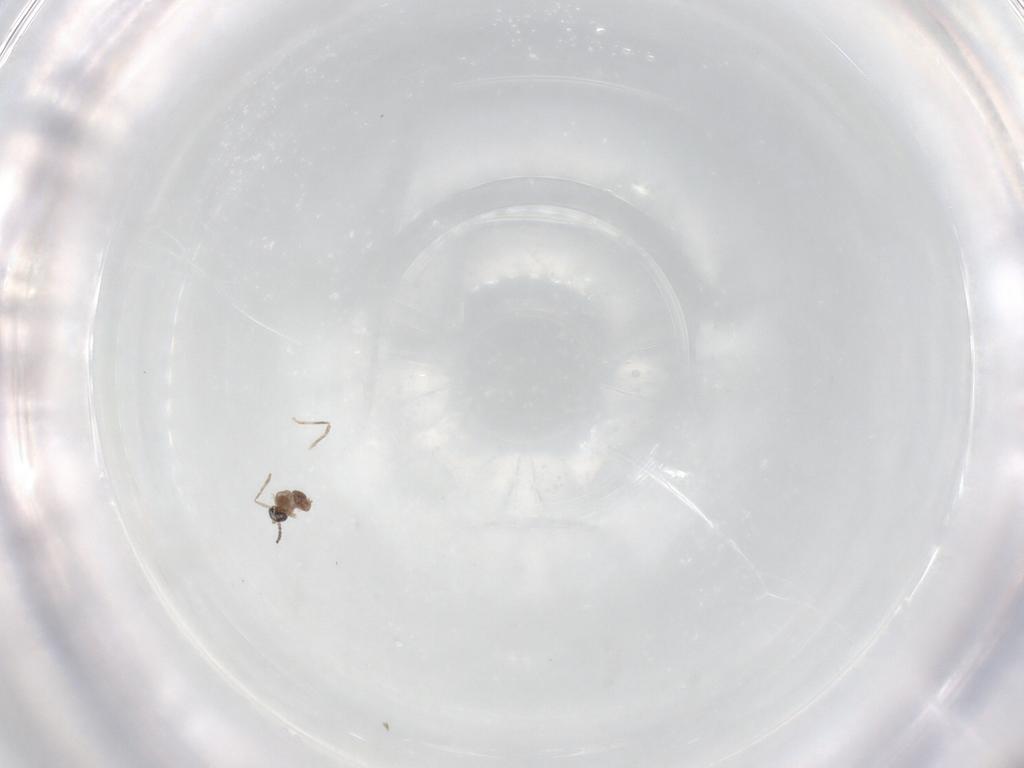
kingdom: Animalia
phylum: Arthropoda
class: Insecta
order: Diptera
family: Cecidomyiidae
